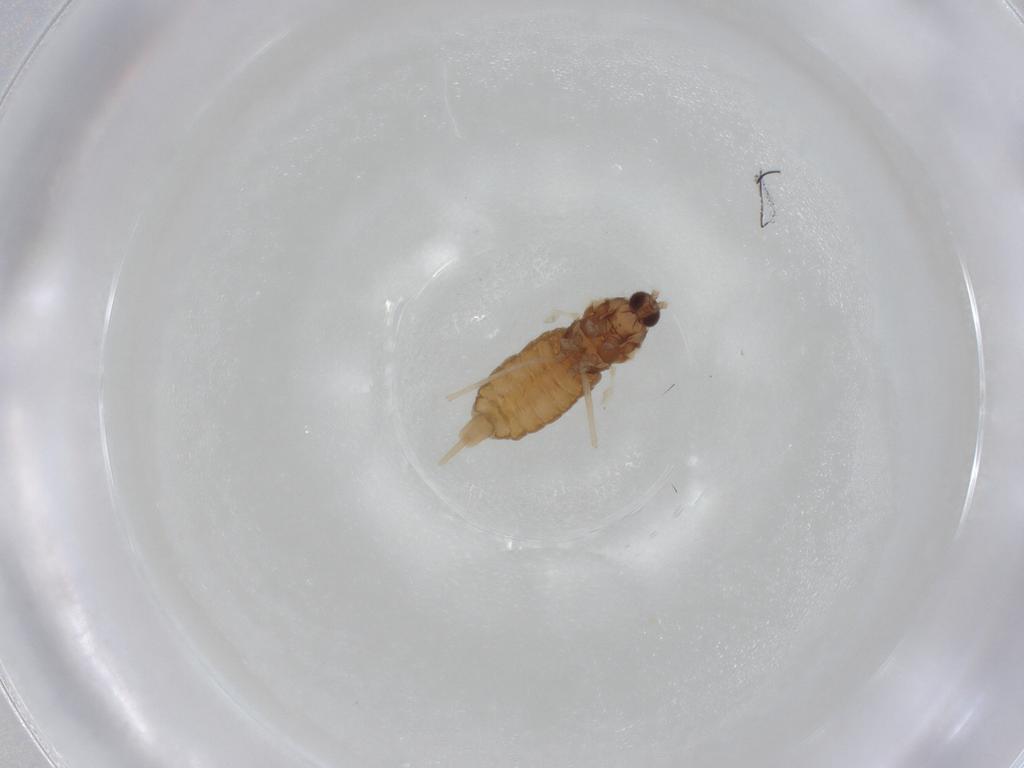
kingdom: Animalia
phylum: Arthropoda
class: Insecta
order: Diptera
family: Cecidomyiidae
